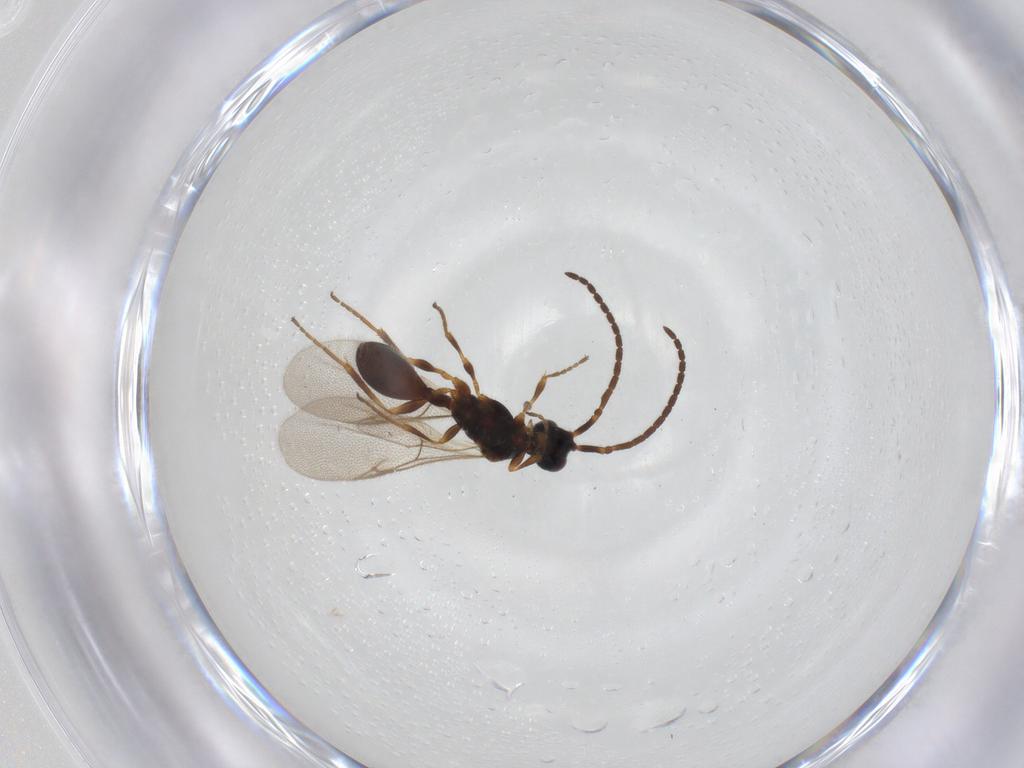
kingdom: Animalia
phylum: Arthropoda
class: Insecta
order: Hymenoptera
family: Diapriidae
